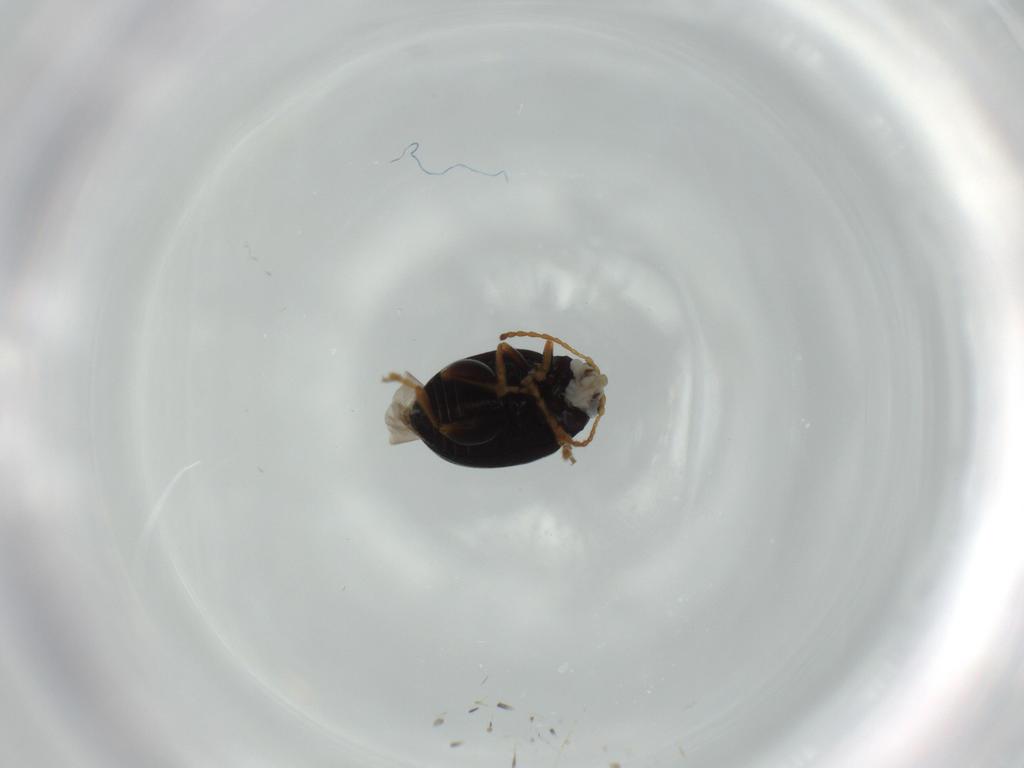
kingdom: Animalia
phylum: Arthropoda
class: Insecta
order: Coleoptera
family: Chrysomelidae
